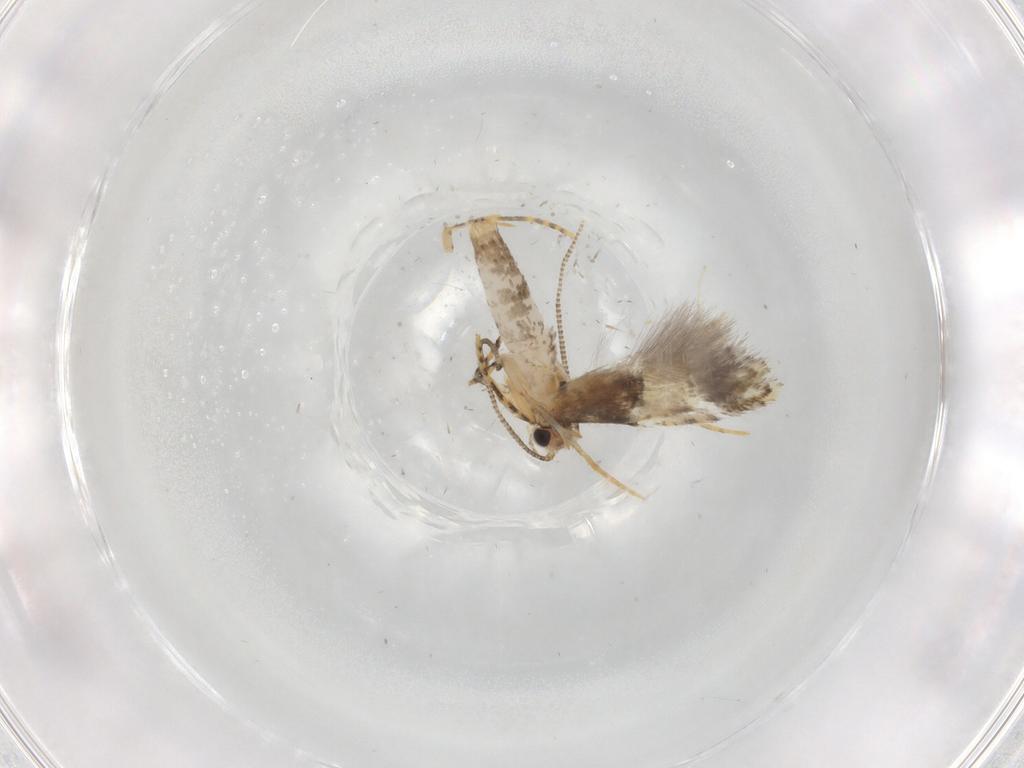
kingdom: Animalia
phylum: Arthropoda
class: Insecta
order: Lepidoptera
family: Tineidae
